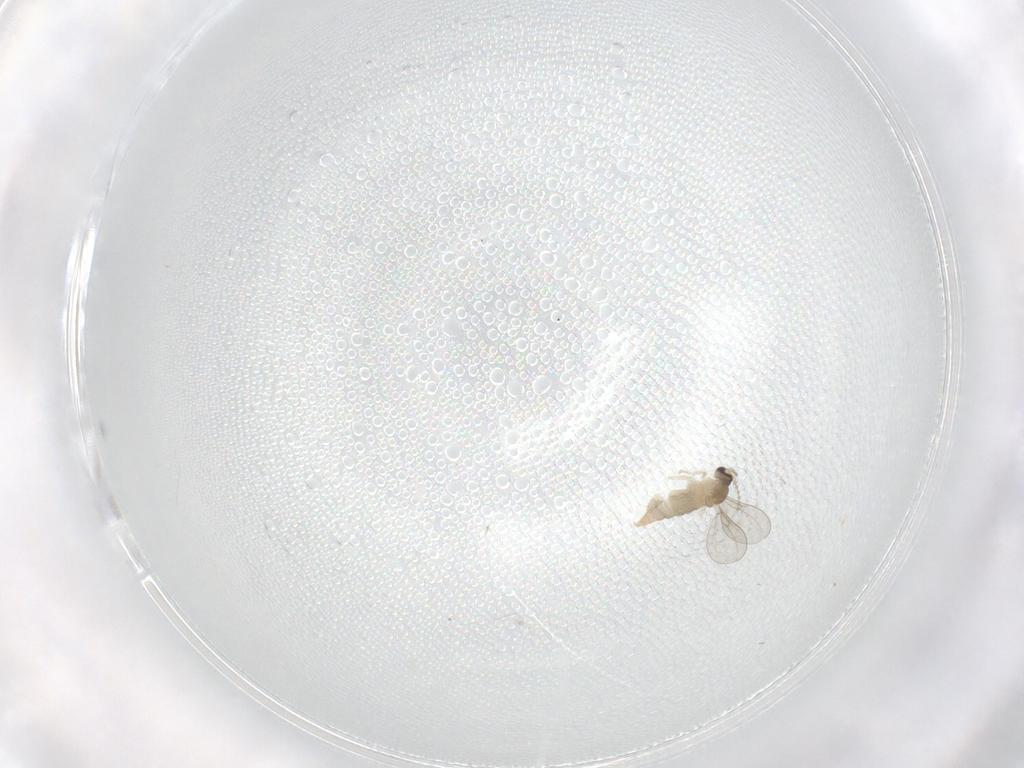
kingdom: Animalia
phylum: Arthropoda
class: Insecta
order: Diptera
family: Cecidomyiidae
